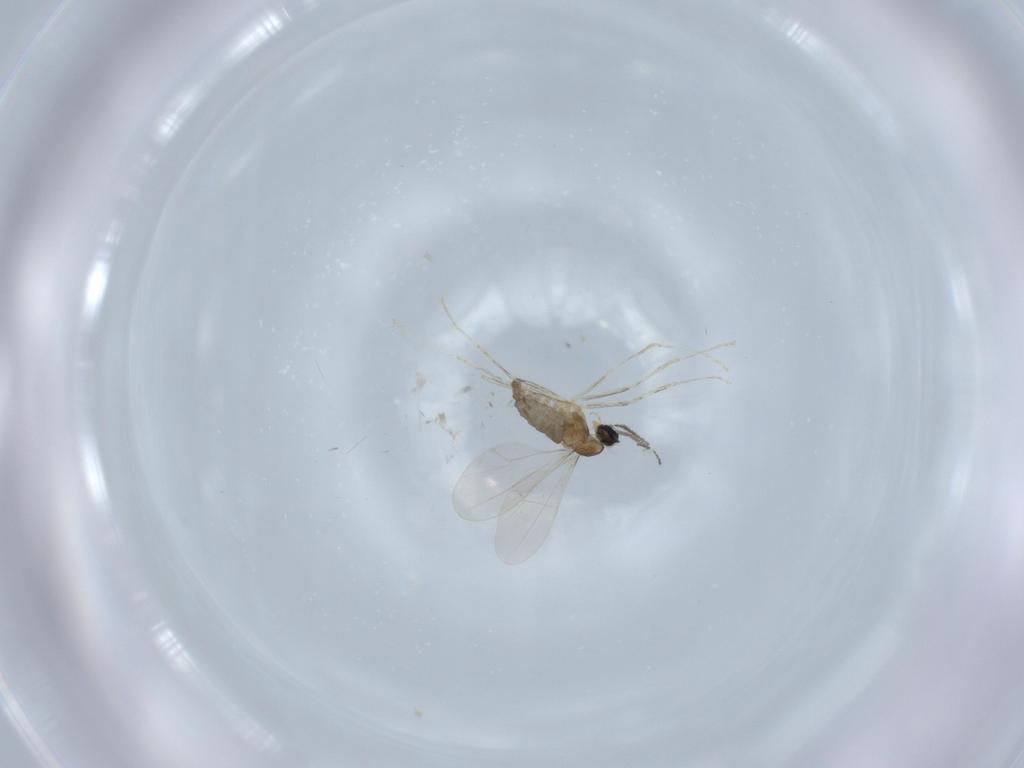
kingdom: Animalia
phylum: Arthropoda
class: Insecta
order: Diptera
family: Cecidomyiidae
